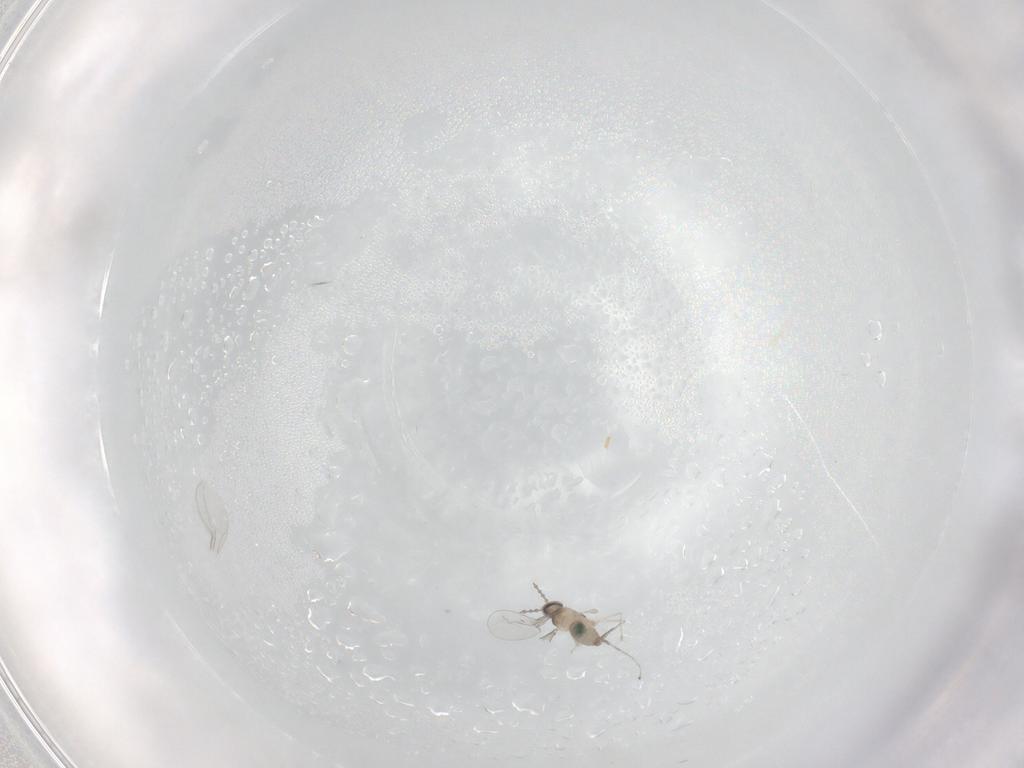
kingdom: Animalia
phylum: Arthropoda
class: Insecta
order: Diptera
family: Cecidomyiidae
